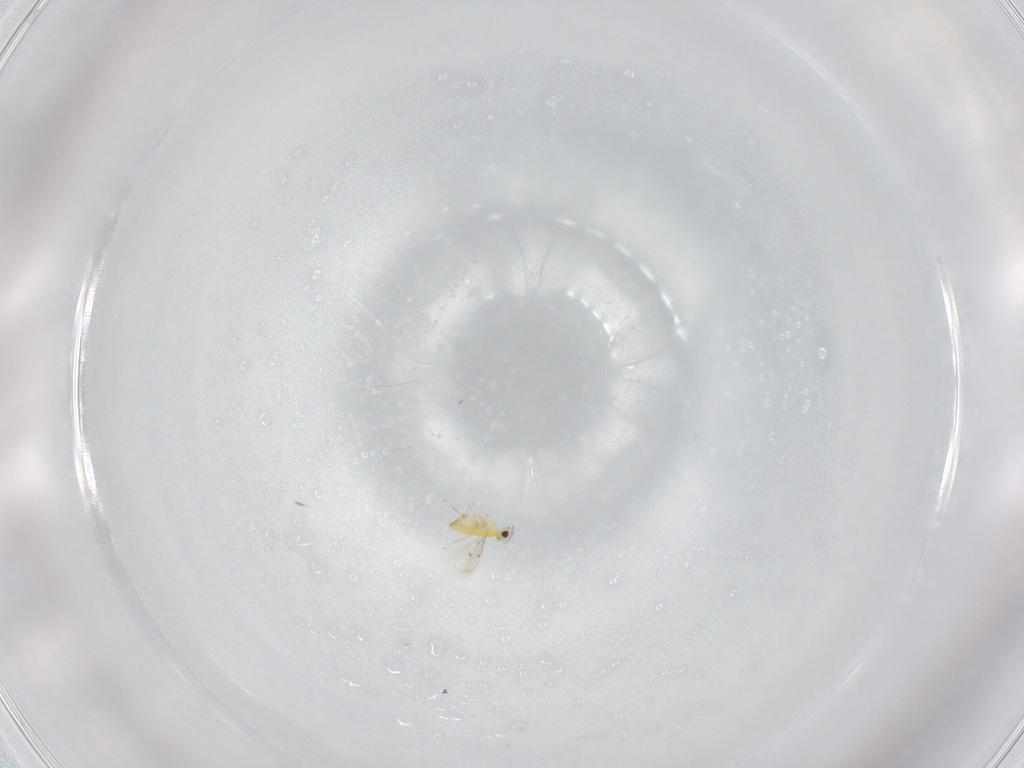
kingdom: Animalia
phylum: Arthropoda
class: Insecta
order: Hymenoptera
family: Trichogrammatidae
